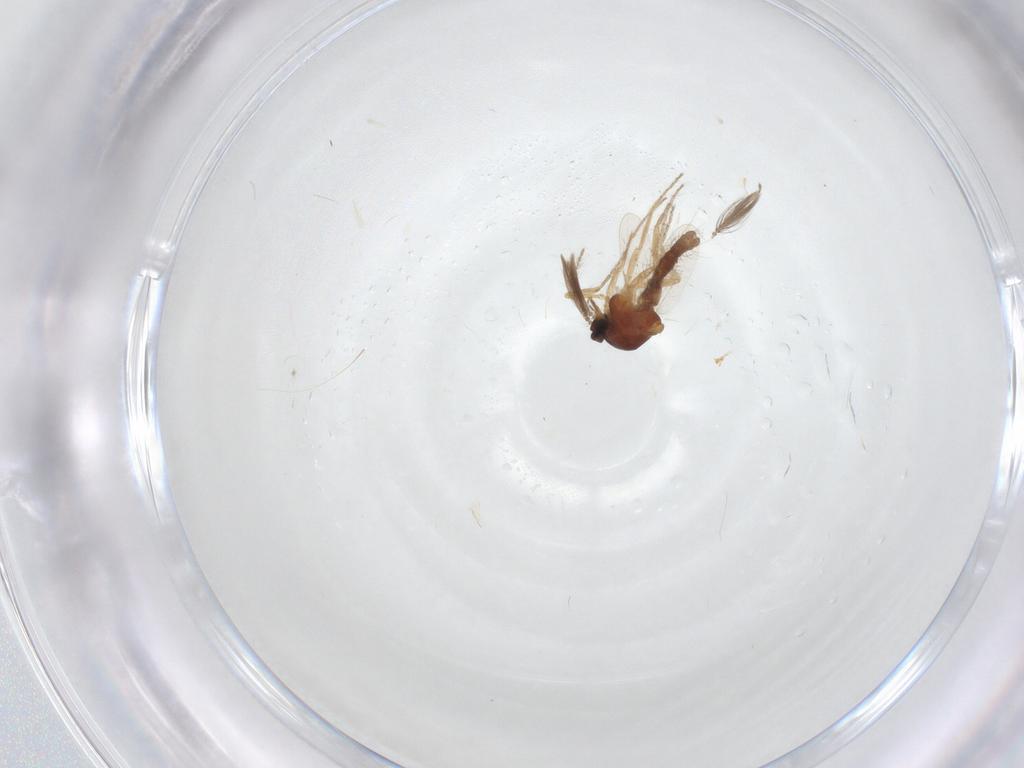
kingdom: Animalia
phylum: Arthropoda
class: Insecta
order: Diptera
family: Ceratopogonidae
